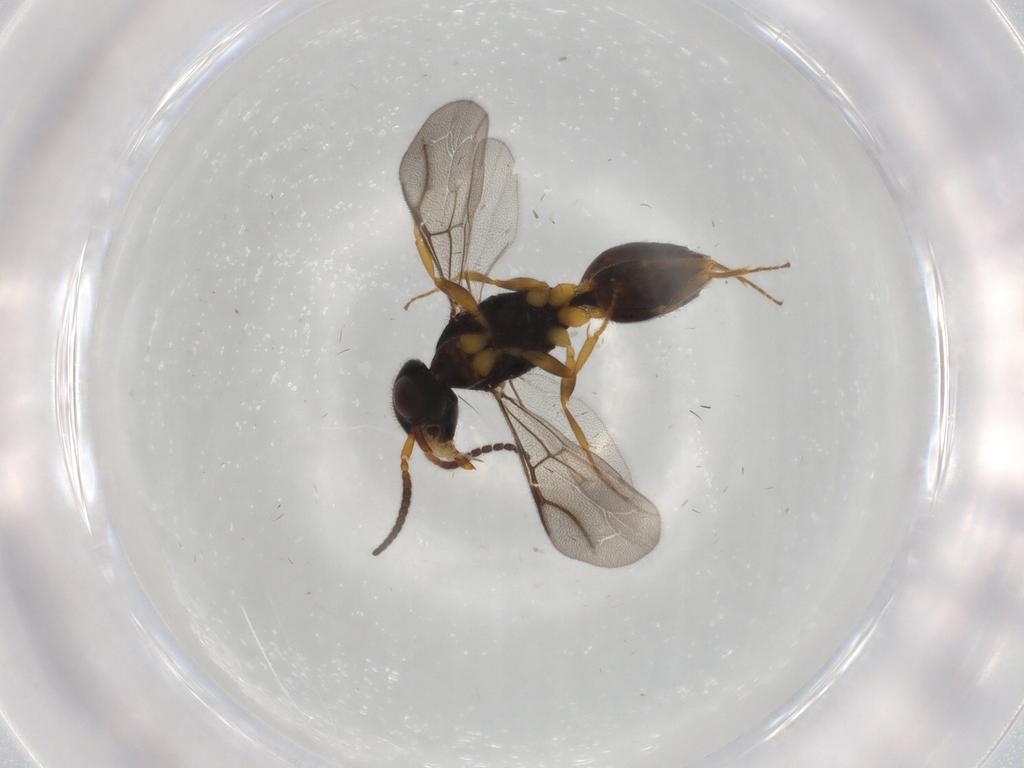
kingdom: Animalia
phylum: Arthropoda
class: Insecta
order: Hymenoptera
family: Bethylidae
